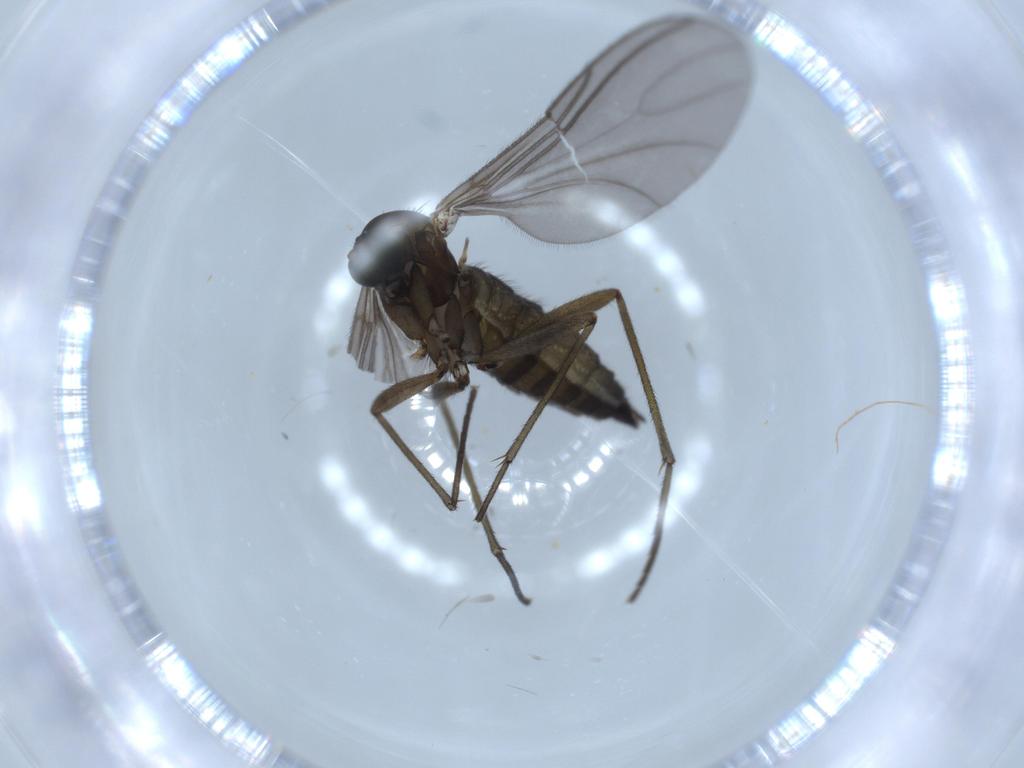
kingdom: Animalia
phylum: Arthropoda
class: Insecta
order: Diptera
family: Sciaridae
